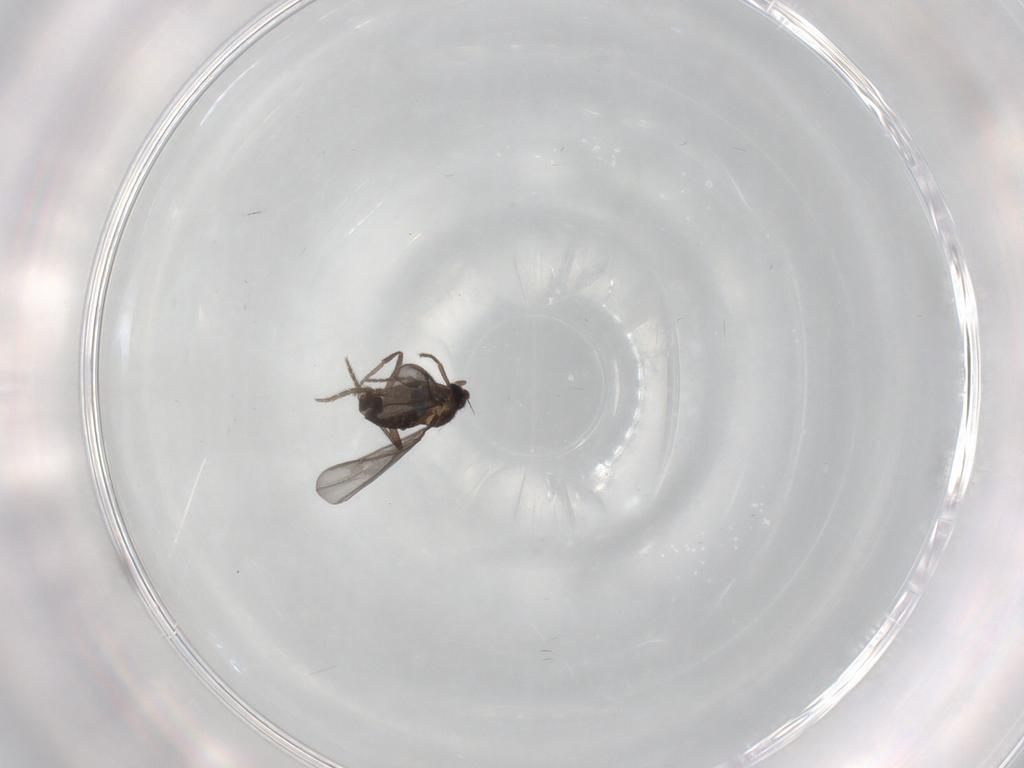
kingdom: Animalia
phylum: Arthropoda
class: Insecta
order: Diptera
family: Phoridae
